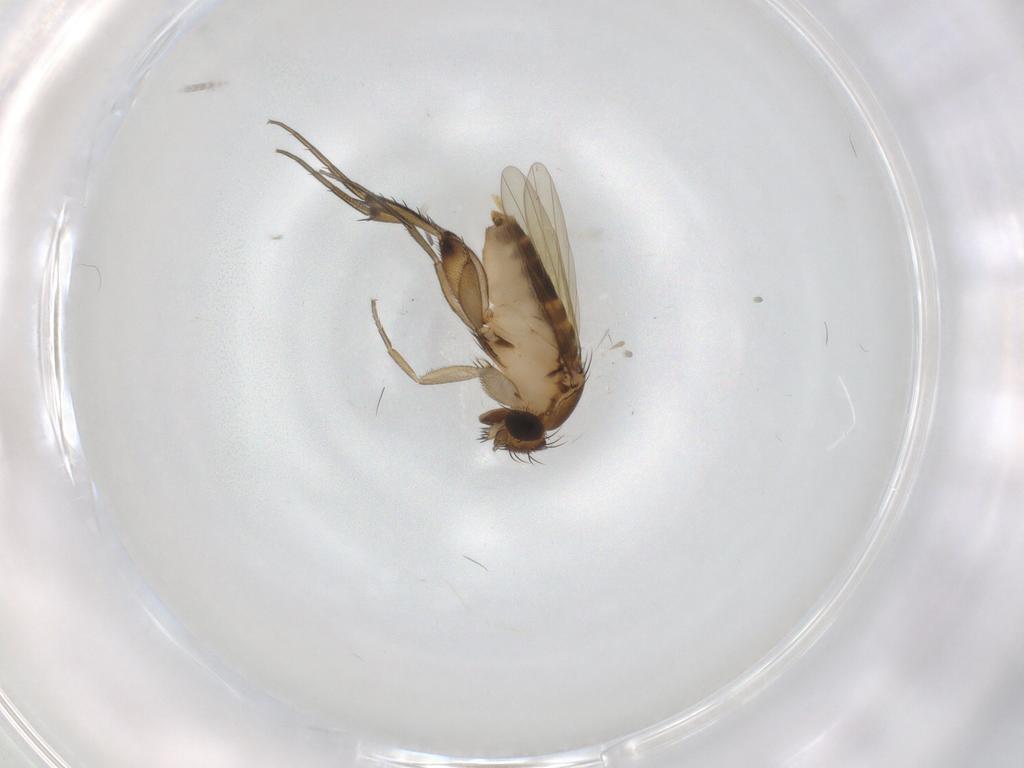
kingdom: Animalia
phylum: Arthropoda
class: Insecta
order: Diptera
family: Phoridae
